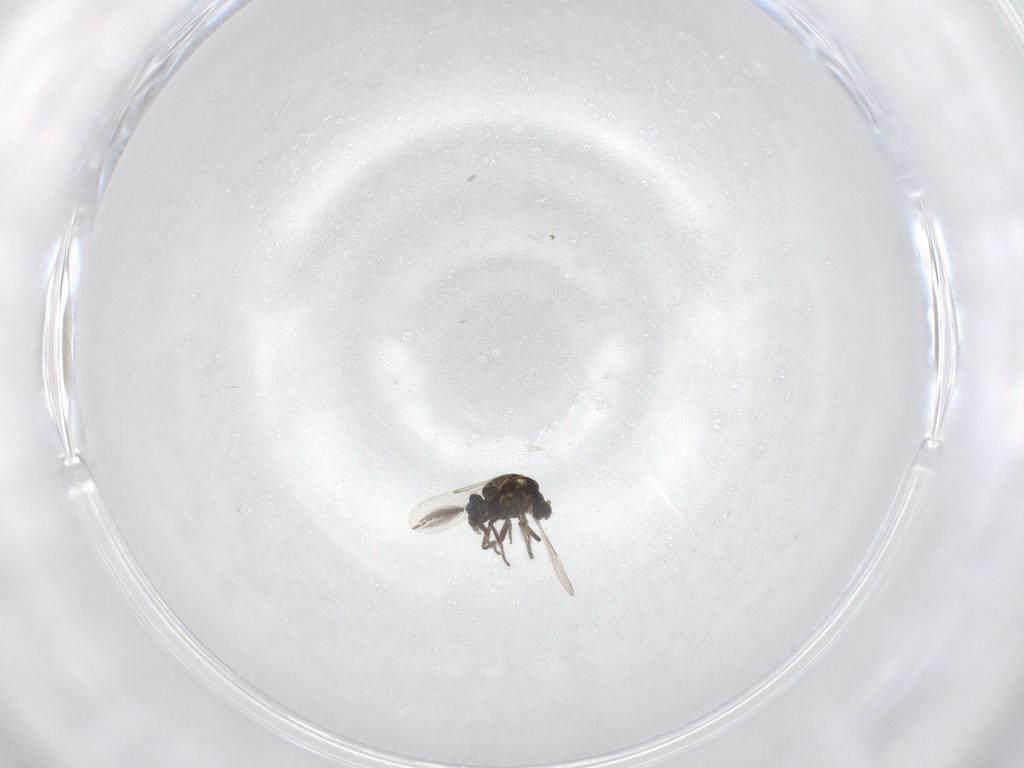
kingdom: Animalia
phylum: Arthropoda
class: Insecta
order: Diptera
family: Ceratopogonidae
